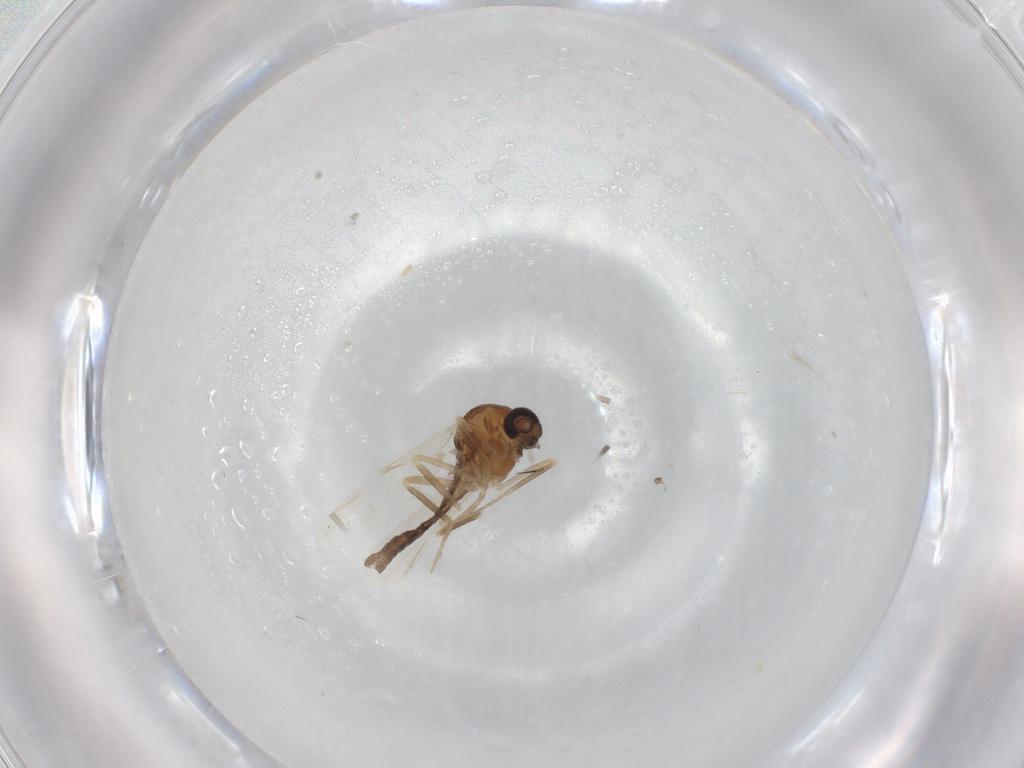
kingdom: Animalia
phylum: Arthropoda
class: Insecta
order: Diptera
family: Ceratopogonidae
